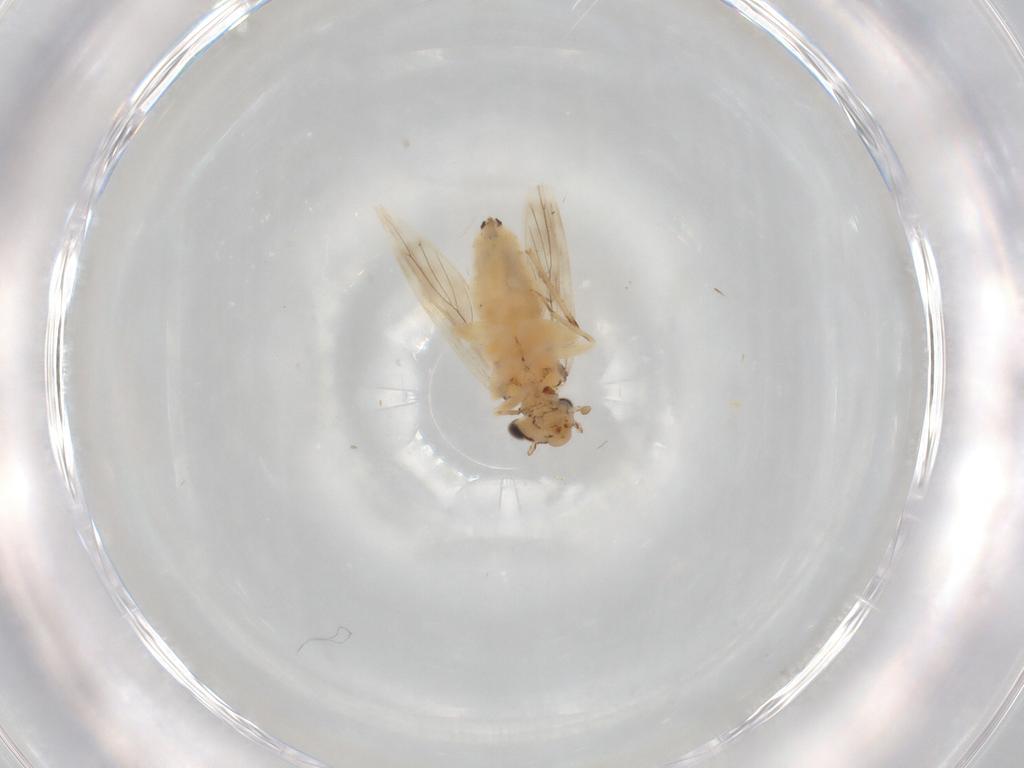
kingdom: Animalia
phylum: Arthropoda
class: Insecta
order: Psocodea
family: Lepidopsocidae
